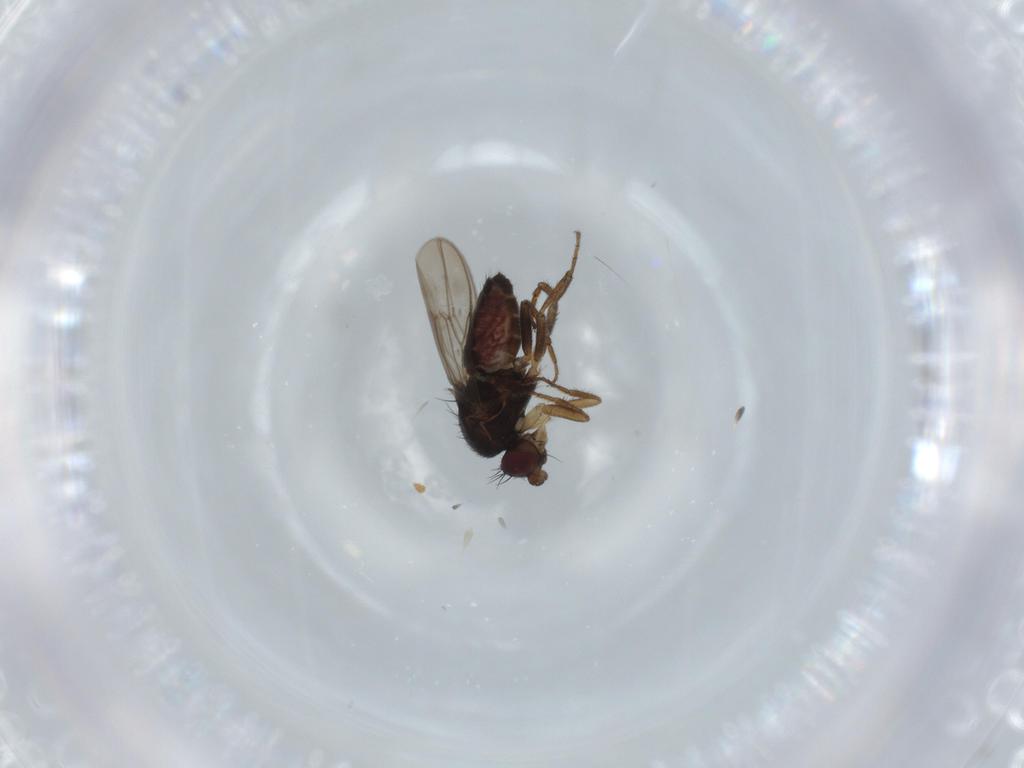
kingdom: Animalia
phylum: Arthropoda
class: Insecta
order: Diptera
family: Sphaeroceridae
